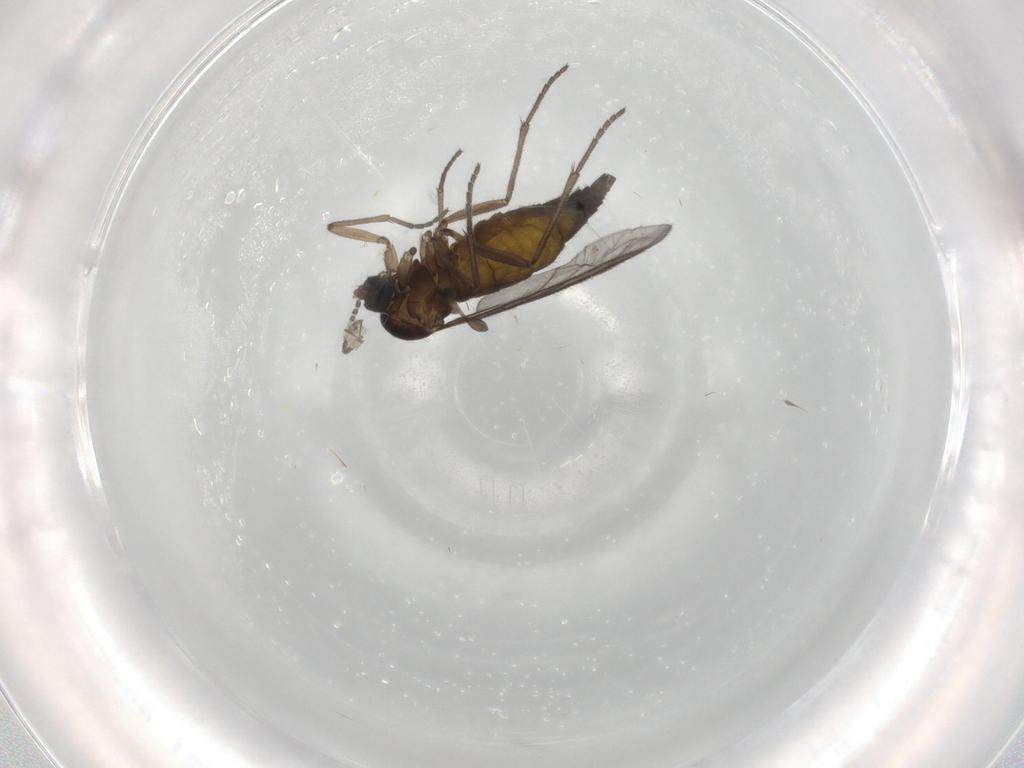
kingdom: Animalia
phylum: Arthropoda
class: Insecta
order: Diptera
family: Sciaridae
